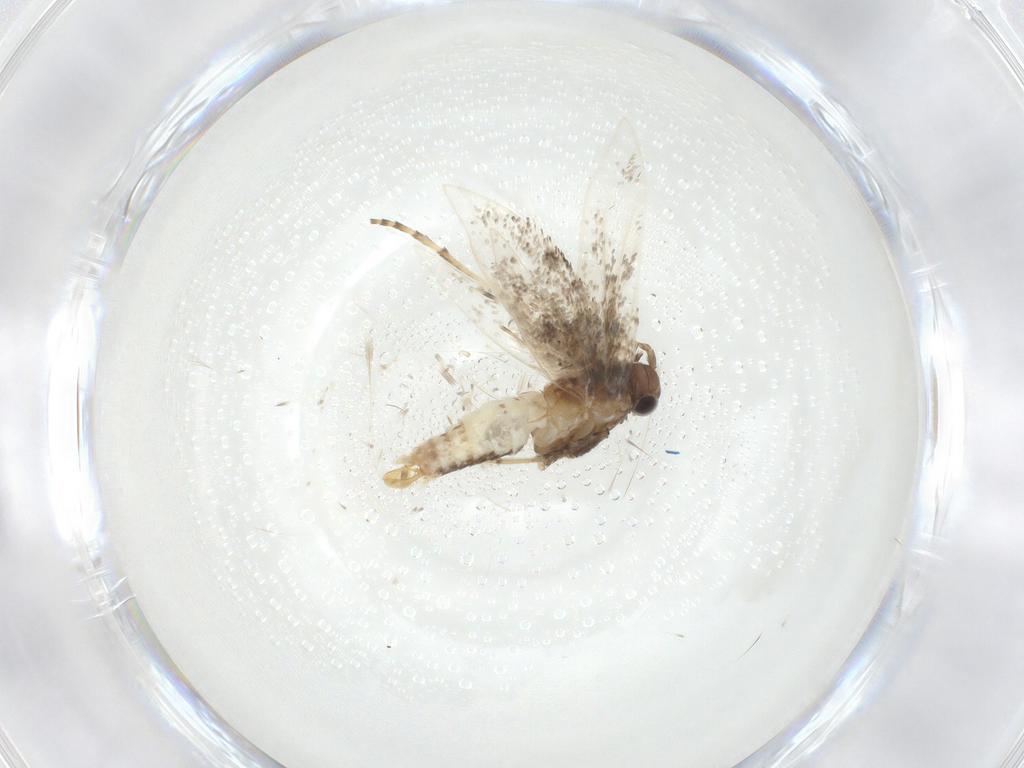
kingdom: Animalia
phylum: Arthropoda
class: Insecta
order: Lepidoptera
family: Gracillariidae
